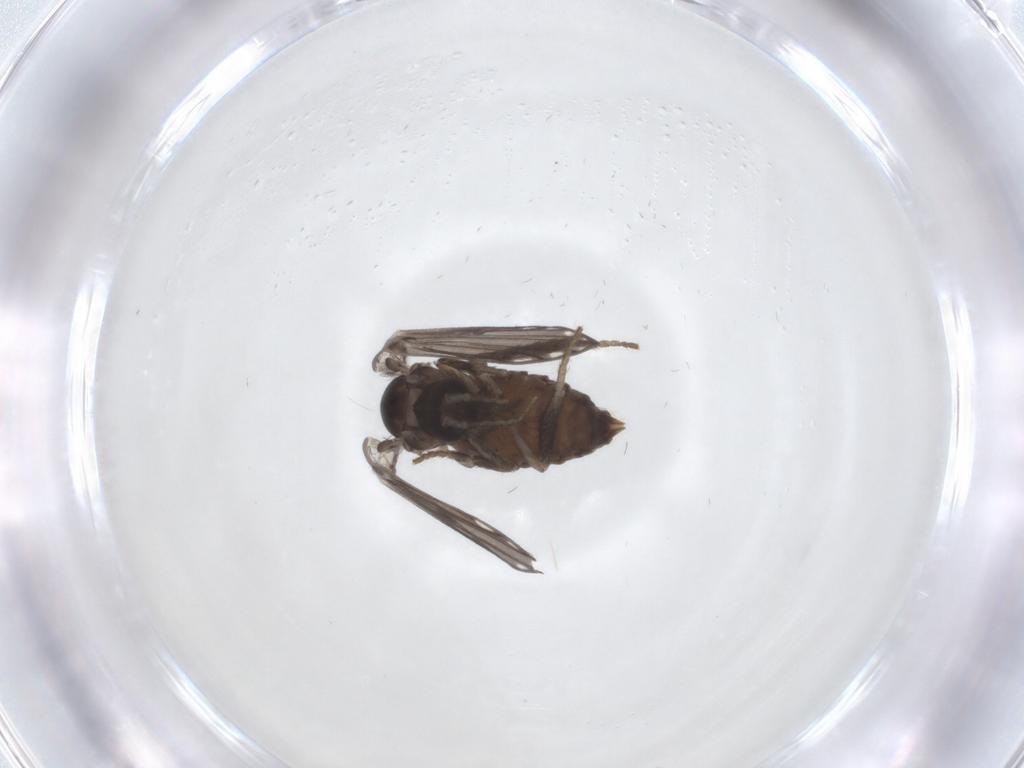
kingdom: Animalia
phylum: Arthropoda
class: Insecta
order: Diptera
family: Psychodidae
